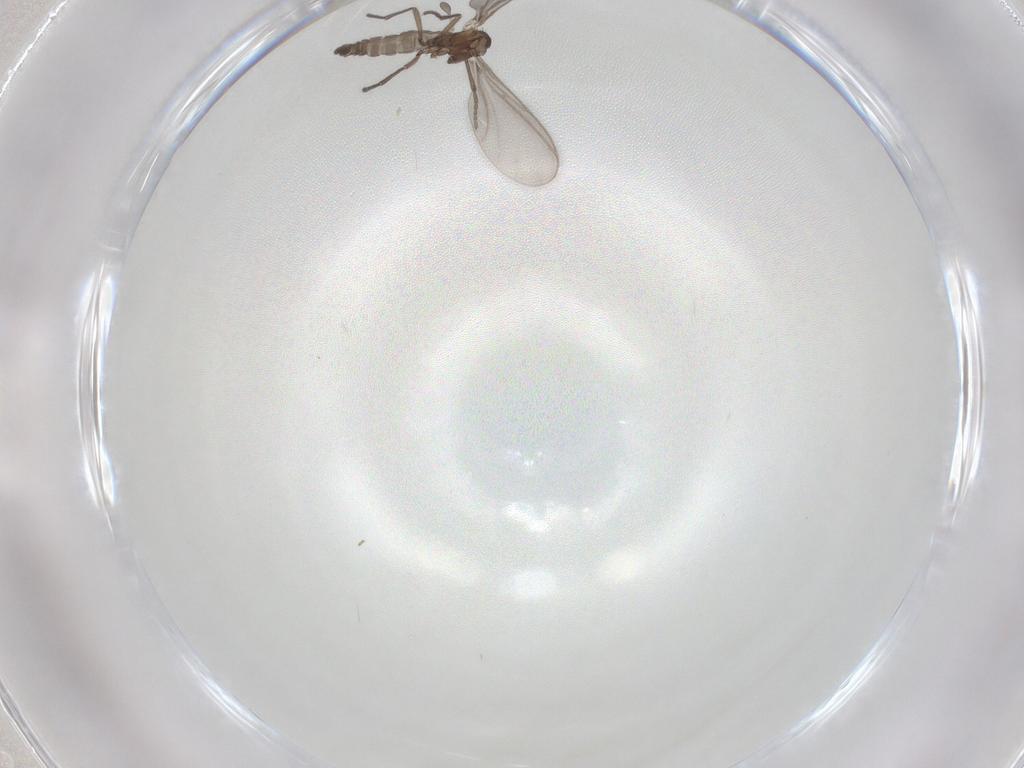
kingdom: Animalia
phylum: Arthropoda
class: Insecta
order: Diptera
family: Sciaridae
